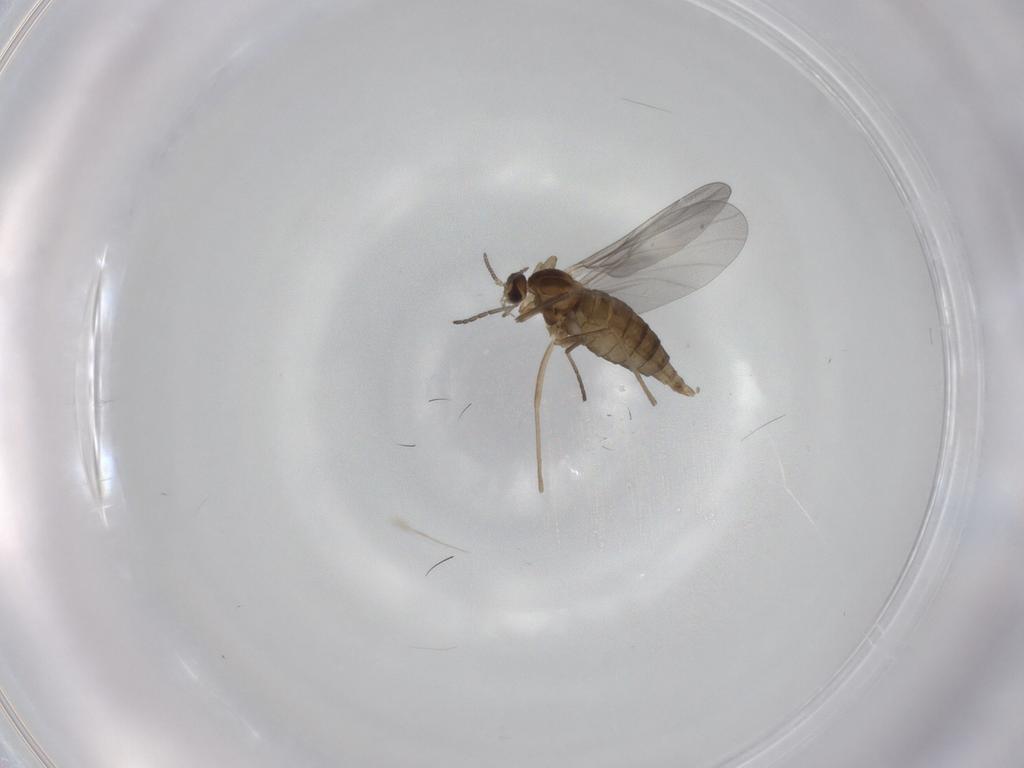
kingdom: Animalia
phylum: Arthropoda
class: Insecta
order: Diptera
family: Cecidomyiidae
